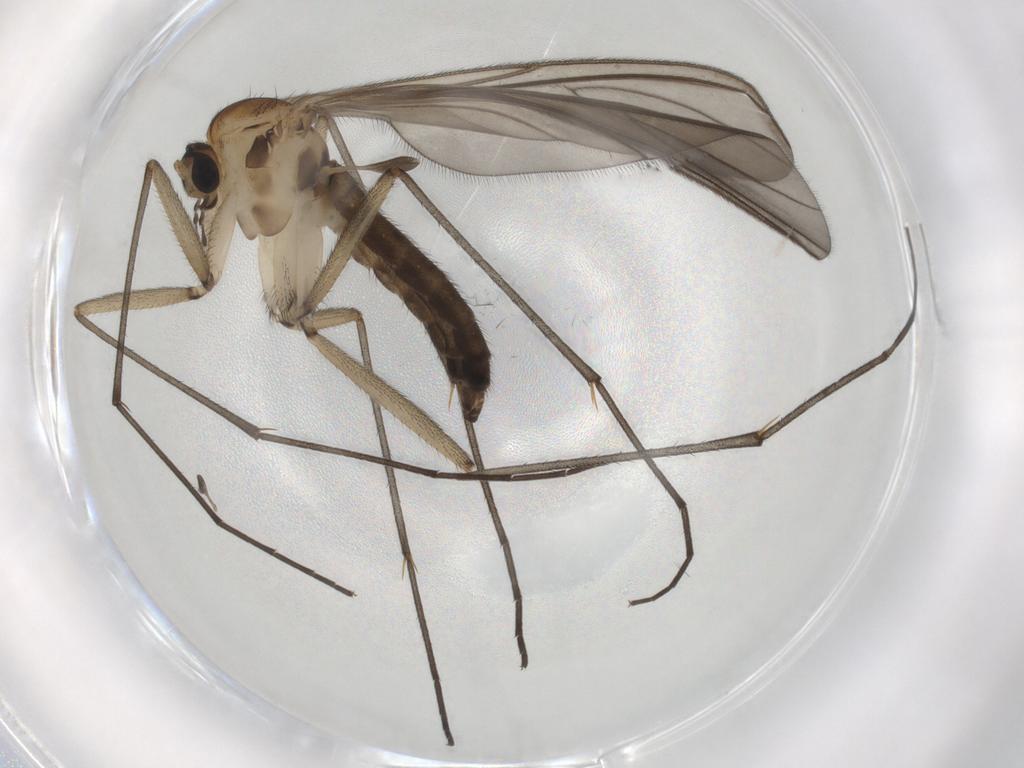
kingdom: Animalia
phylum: Arthropoda
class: Insecta
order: Diptera
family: Sciaridae
